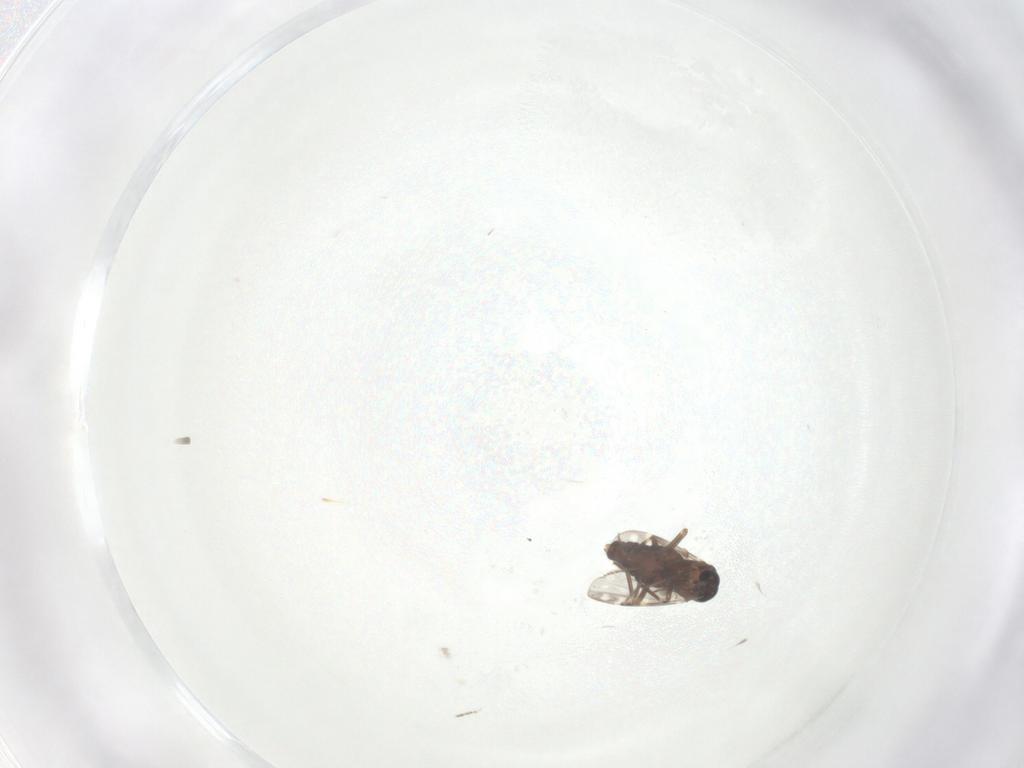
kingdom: Animalia
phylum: Arthropoda
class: Insecta
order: Diptera
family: Ceratopogonidae
